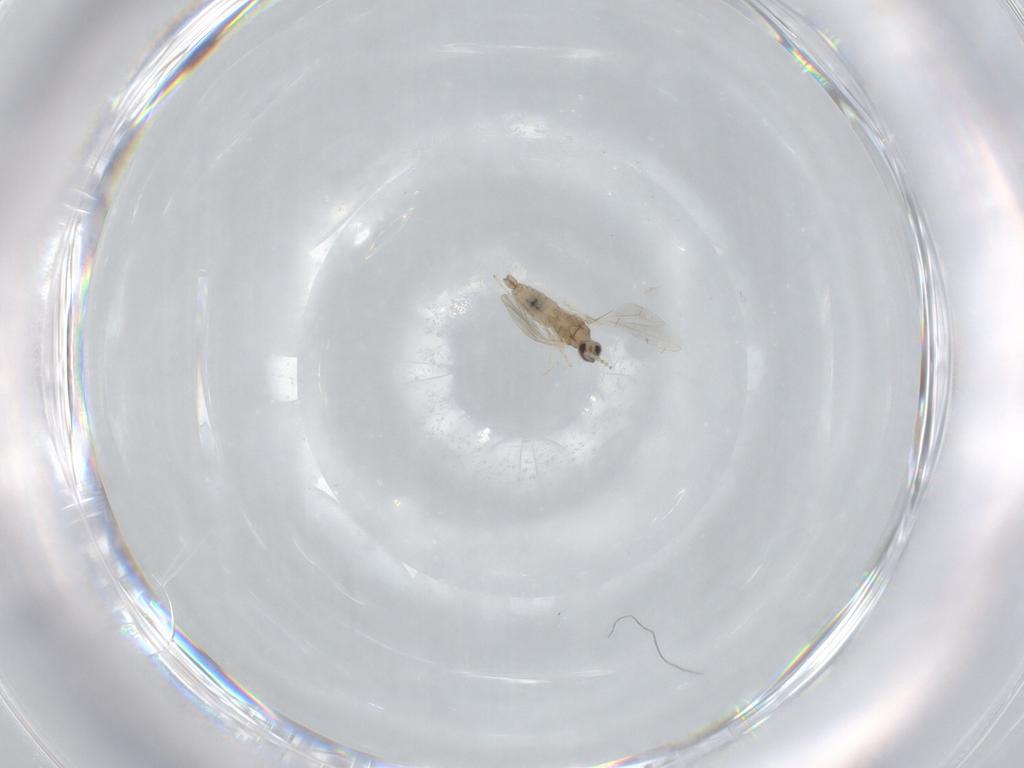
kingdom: Animalia
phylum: Arthropoda
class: Insecta
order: Diptera
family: Cecidomyiidae
